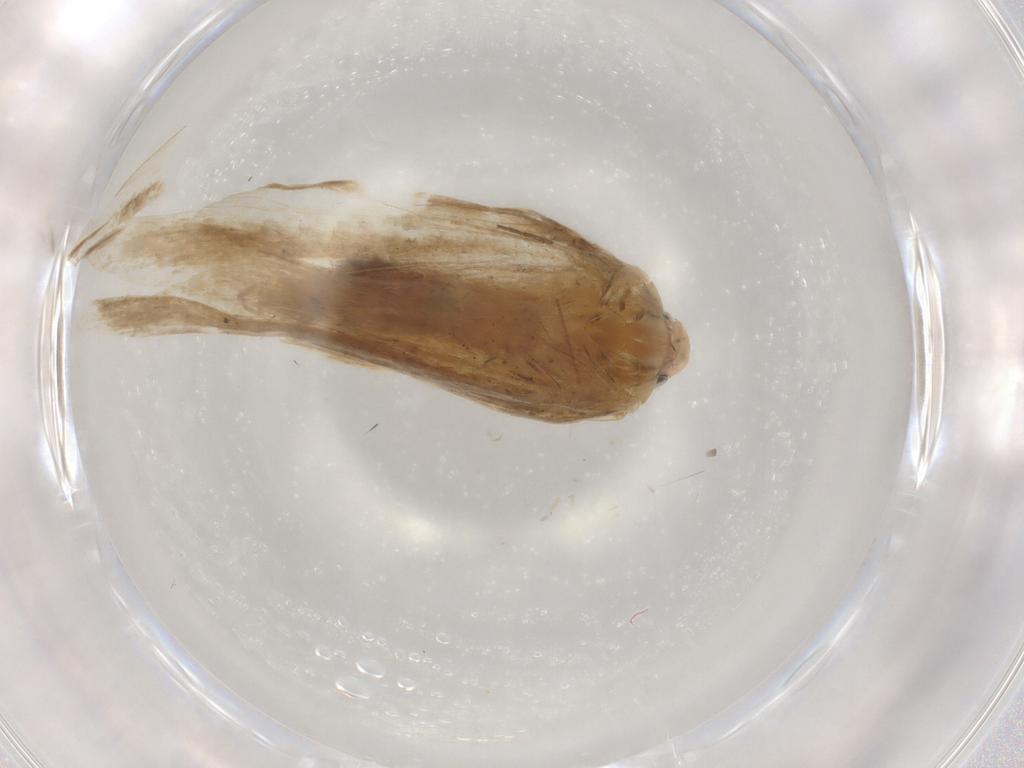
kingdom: Animalia
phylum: Arthropoda
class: Insecta
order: Lepidoptera
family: Lecithoceridae
